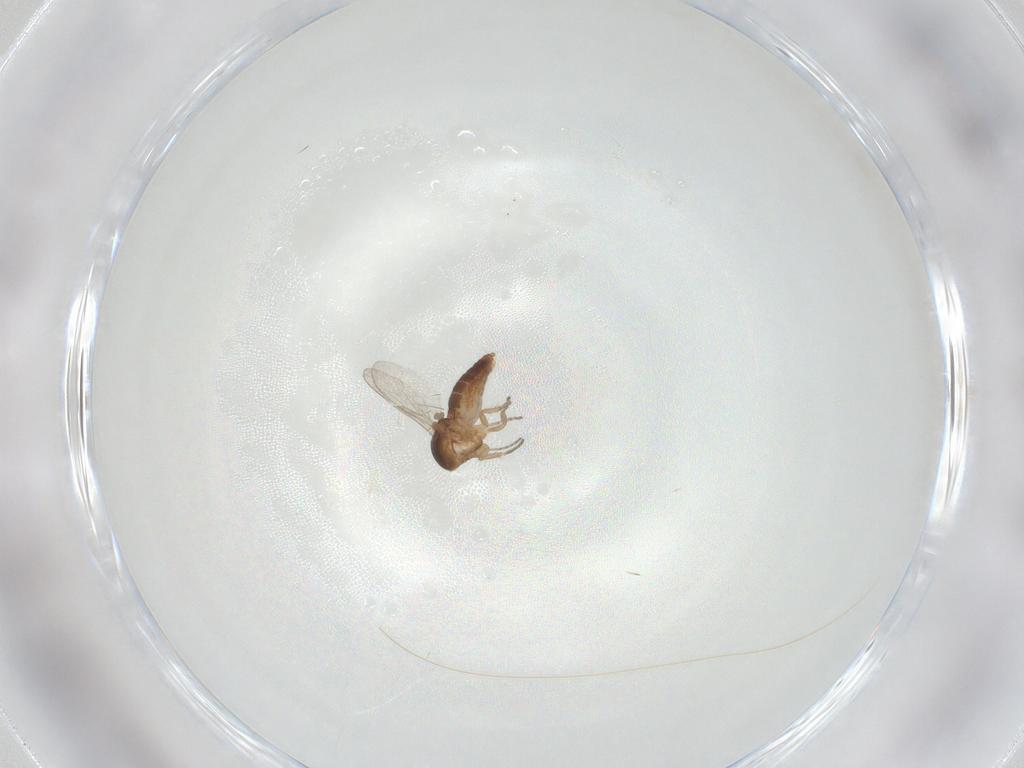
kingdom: Animalia
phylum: Arthropoda
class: Insecta
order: Diptera
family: Ceratopogonidae
